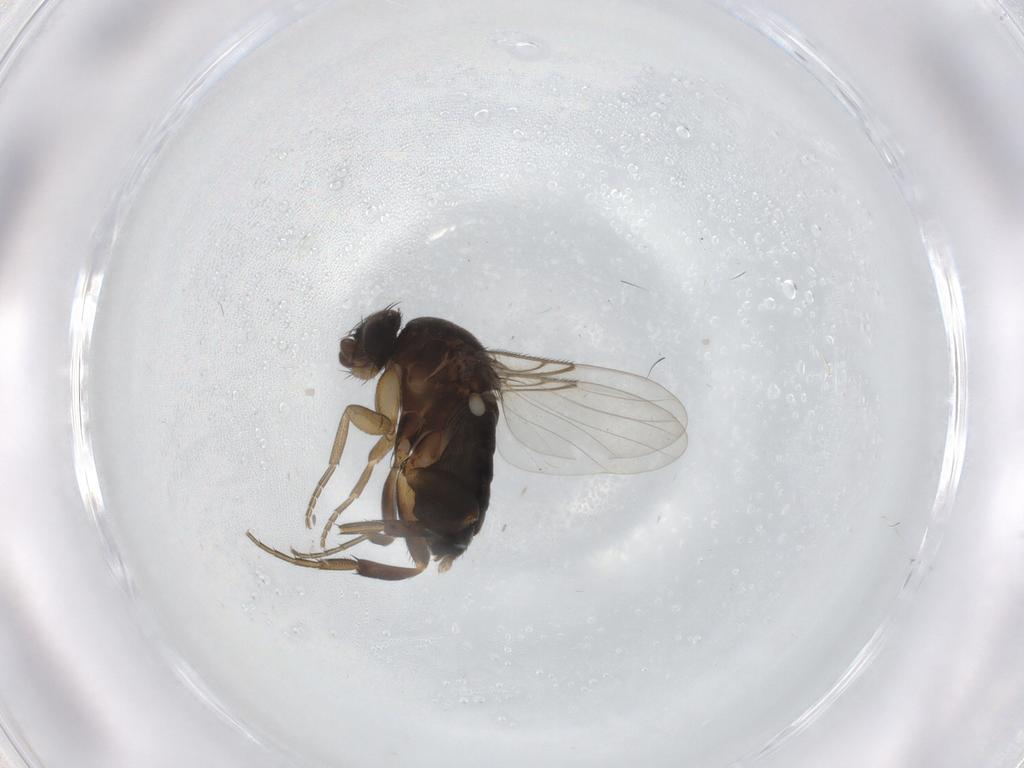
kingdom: Animalia
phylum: Arthropoda
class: Insecta
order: Diptera
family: Phoridae
